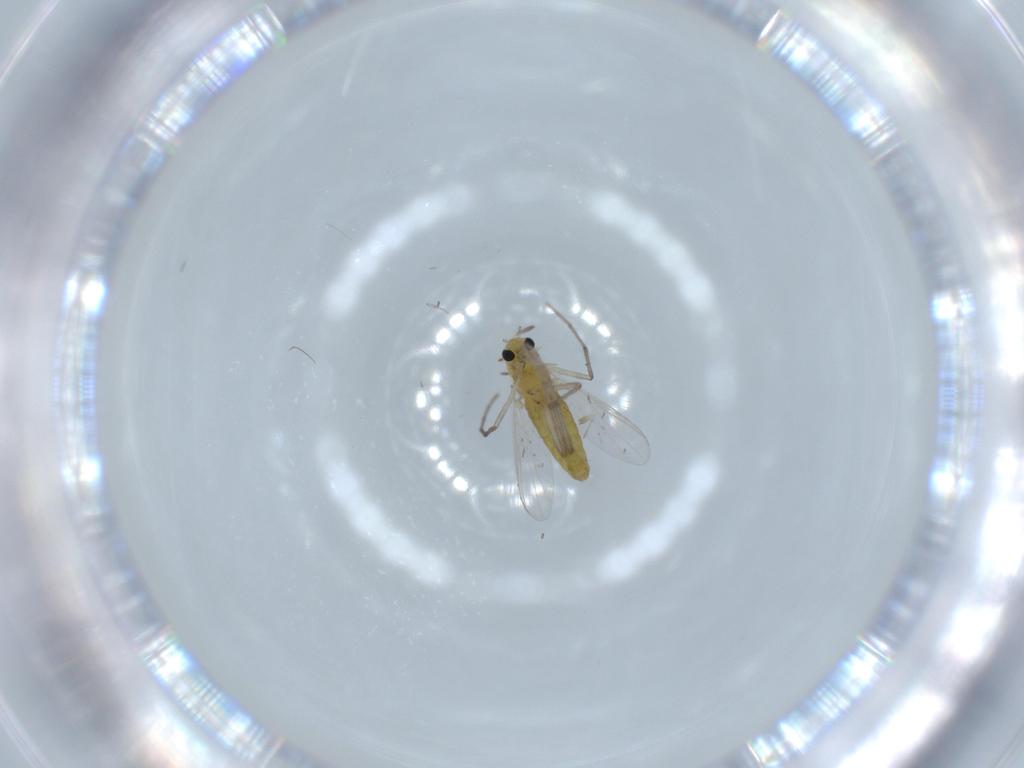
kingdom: Animalia
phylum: Arthropoda
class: Insecta
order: Diptera
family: Chironomidae
